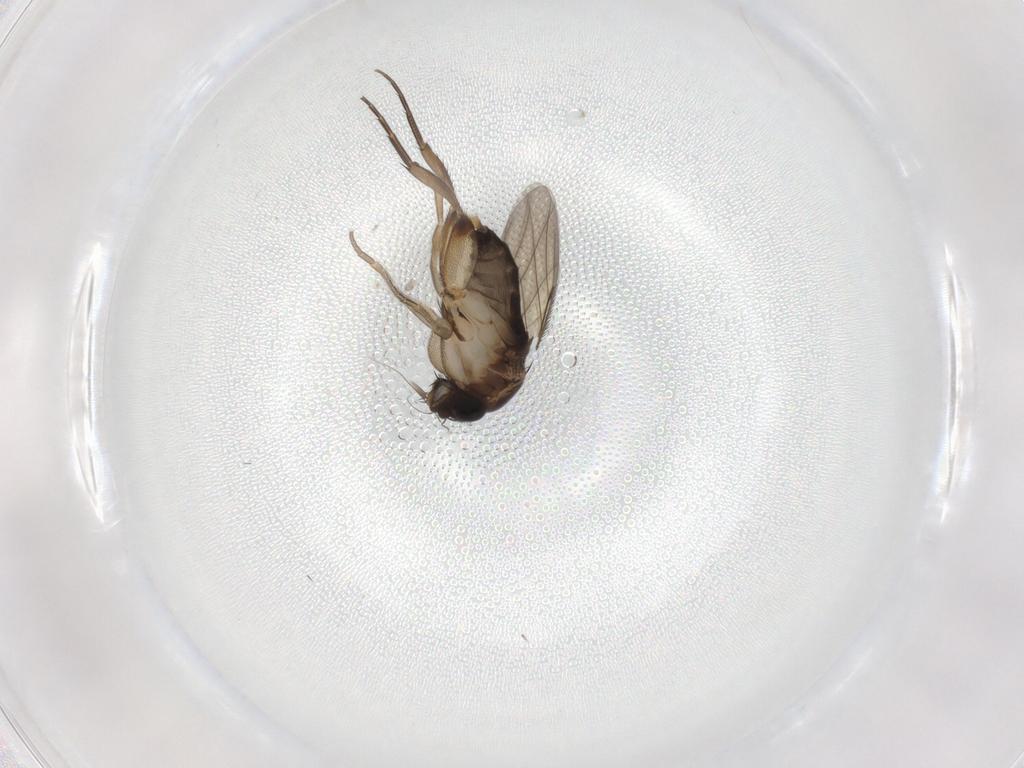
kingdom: Animalia
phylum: Arthropoda
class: Insecta
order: Diptera
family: Phoridae
